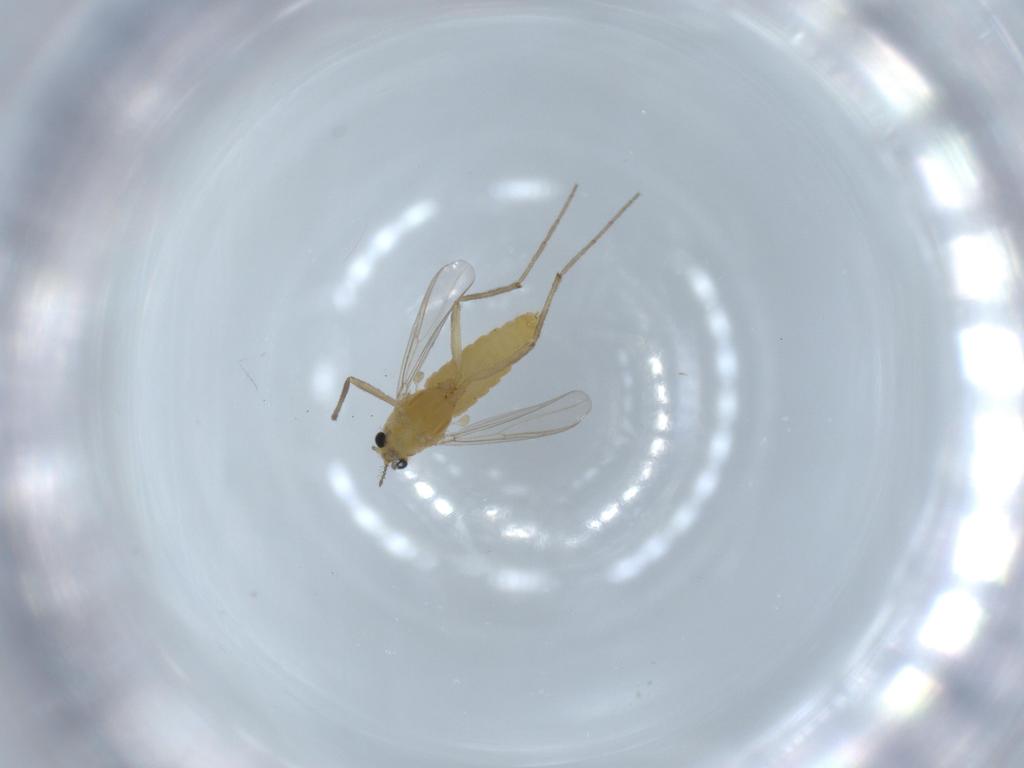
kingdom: Animalia
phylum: Arthropoda
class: Insecta
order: Diptera
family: Chironomidae
